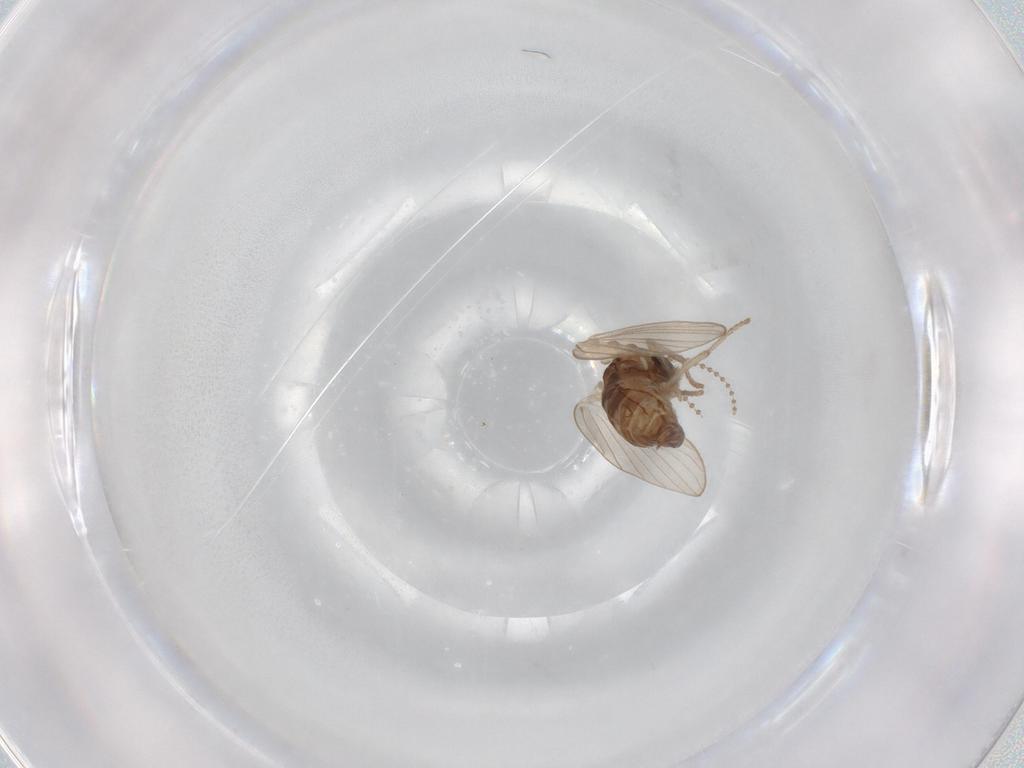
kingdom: Animalia
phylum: Arthropoda
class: Insecta
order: Diptera
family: Psychodidae
